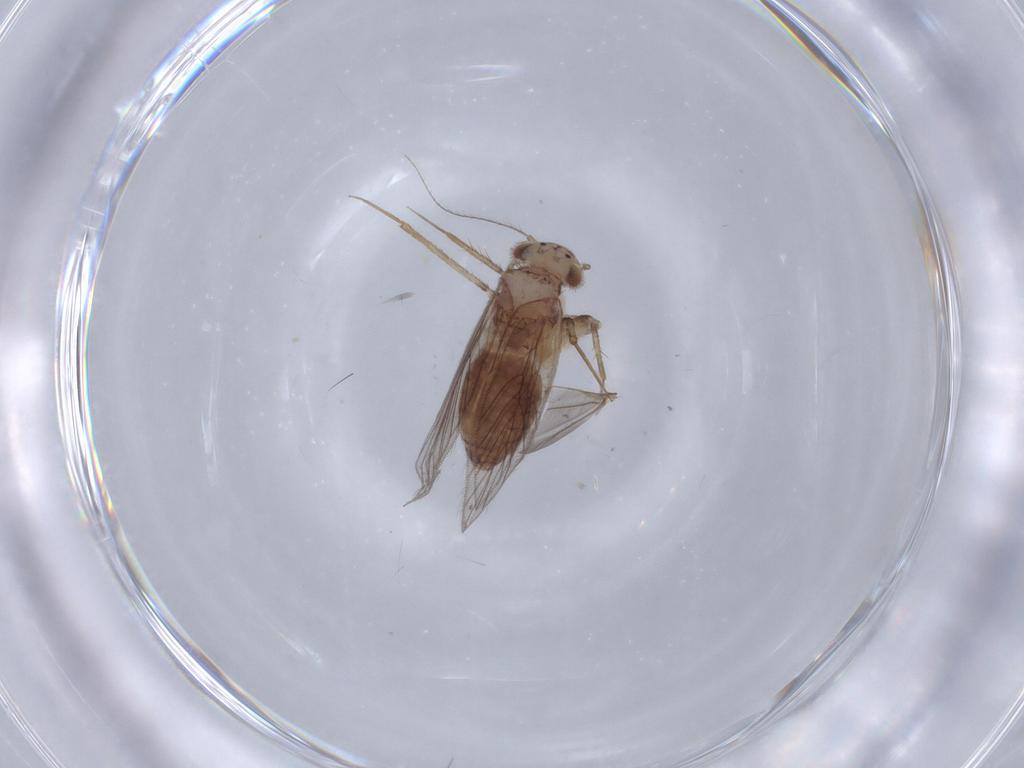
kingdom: Animalia
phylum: Arthropoda
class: Insecta
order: Psocodea
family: Lepidopsocidae
